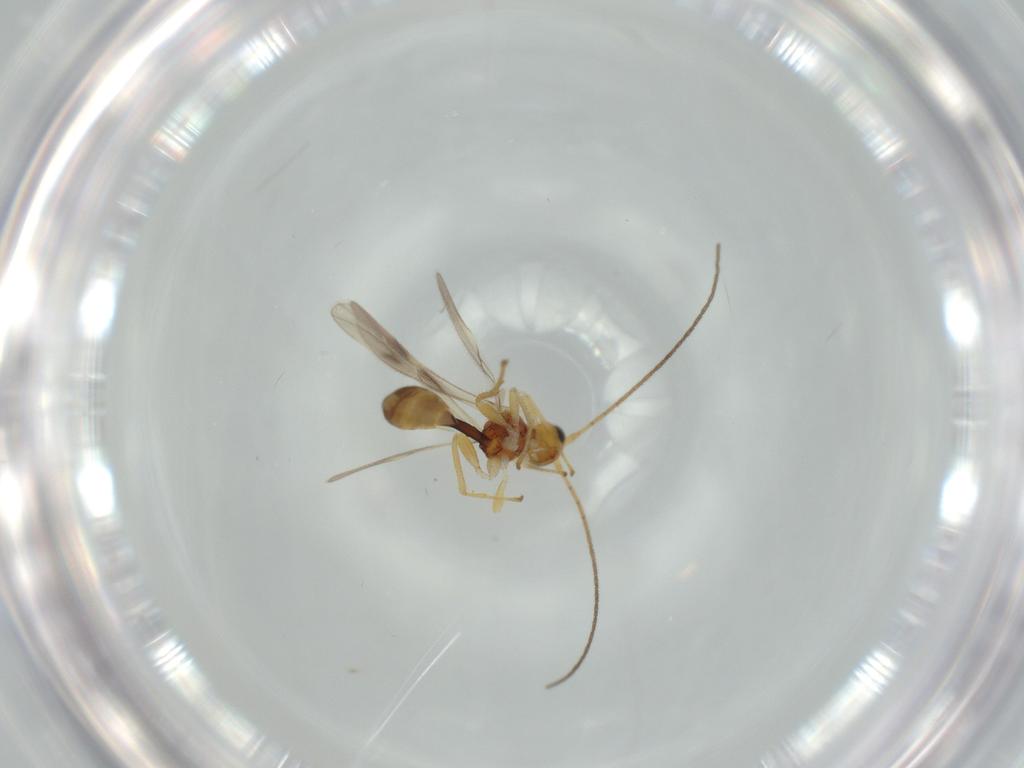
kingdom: Animalia
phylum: Arthropoda
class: Insecta
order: Hymenoptera
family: Braconidae
